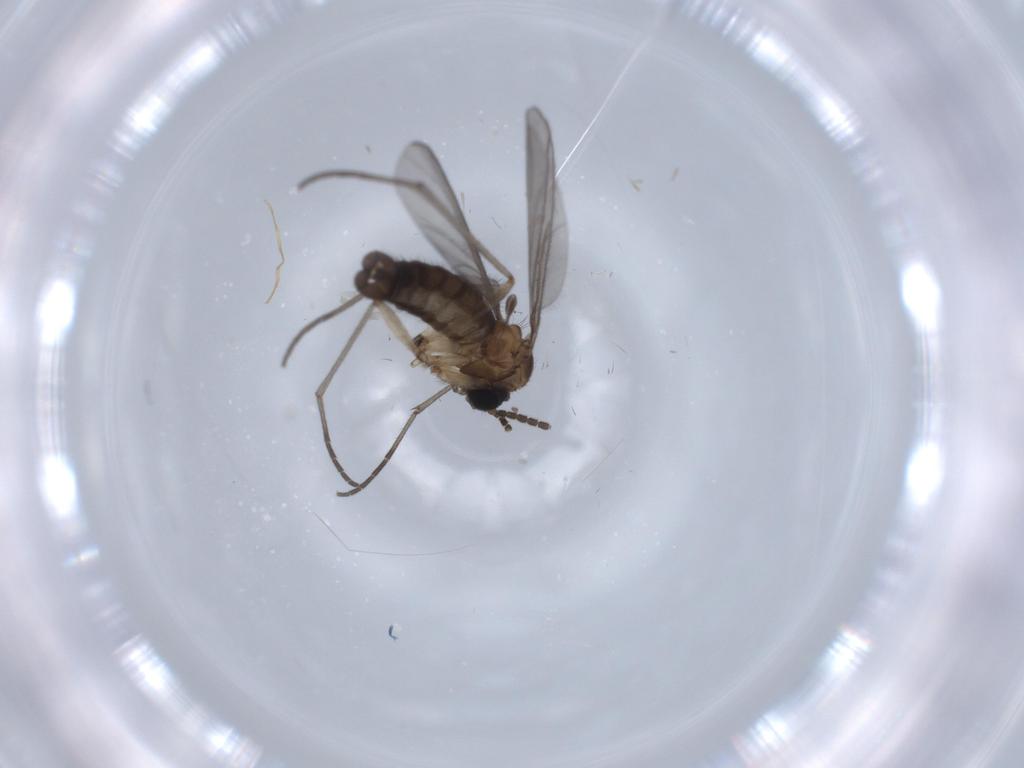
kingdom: Animalia
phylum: Arthropoda
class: Insecta
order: Diptera
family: Sciaridae
